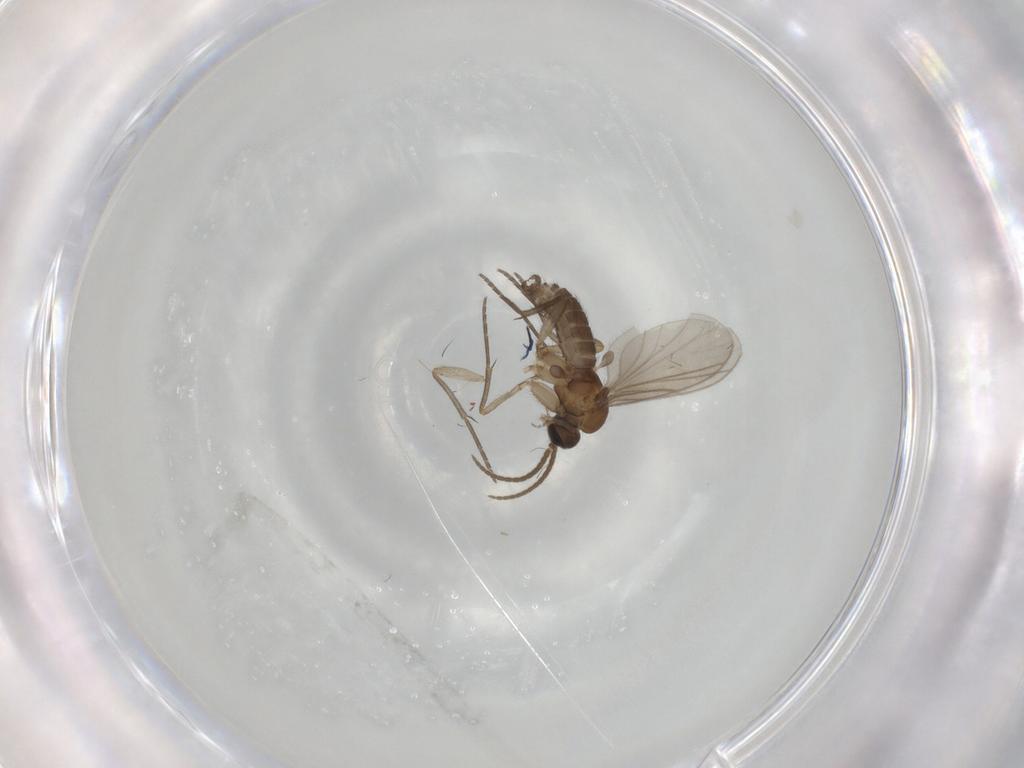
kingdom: Animalia
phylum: Arthropoda
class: Insecta
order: Diptera
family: Sciaridae
